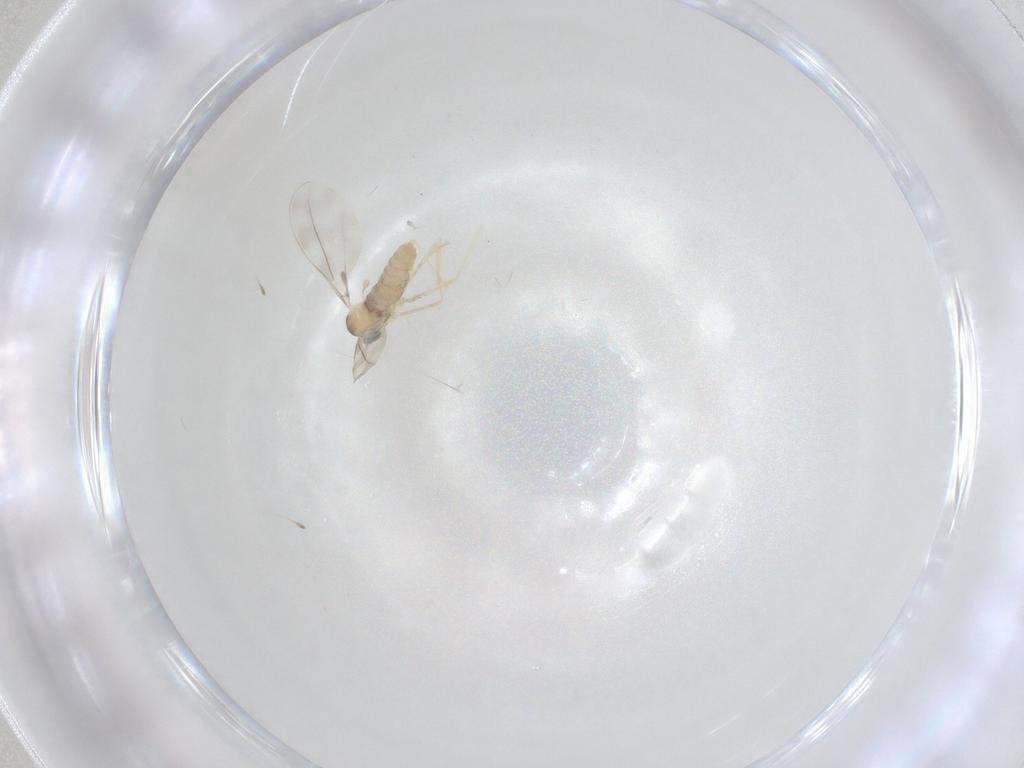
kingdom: Animalia
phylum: Arthropoda
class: Insecta
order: Diptera
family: Cecidomyiidae
